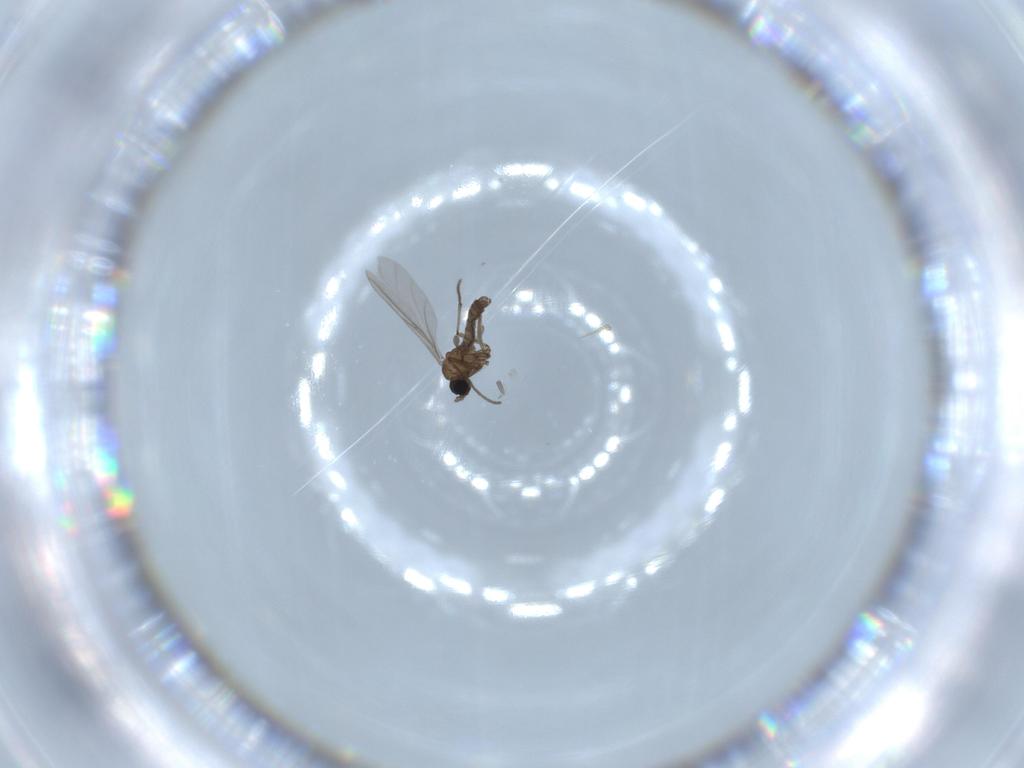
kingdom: Animalia
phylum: Arthropoda
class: Insecta
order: Diptera
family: Sciaridae
